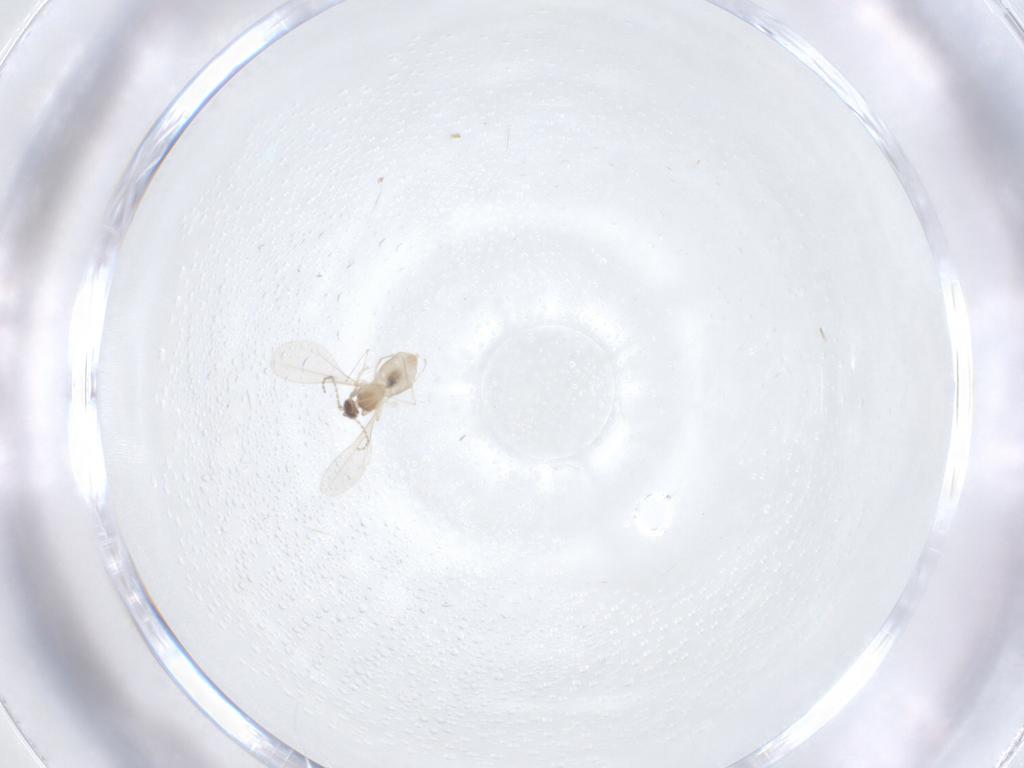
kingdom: Animalia
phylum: Arthropoda
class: Insecta
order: Diptera
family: Cecidomyiidae
